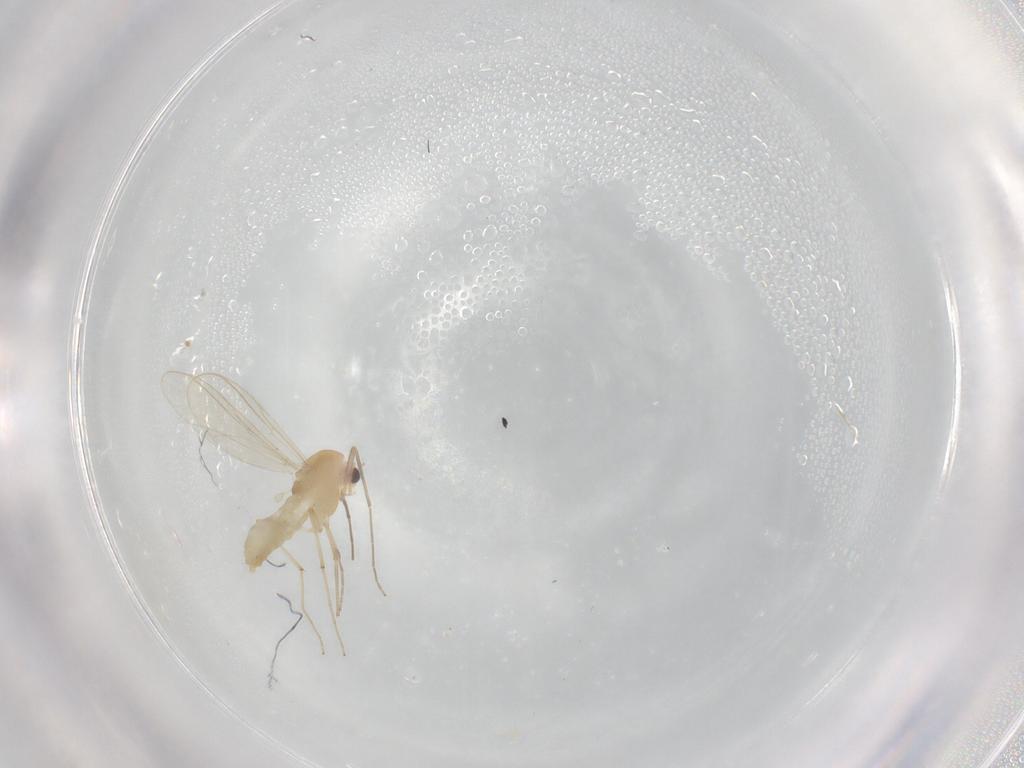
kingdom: Animalia
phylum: Arthropoda
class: Insecta
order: Diptera
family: Chironomidae
